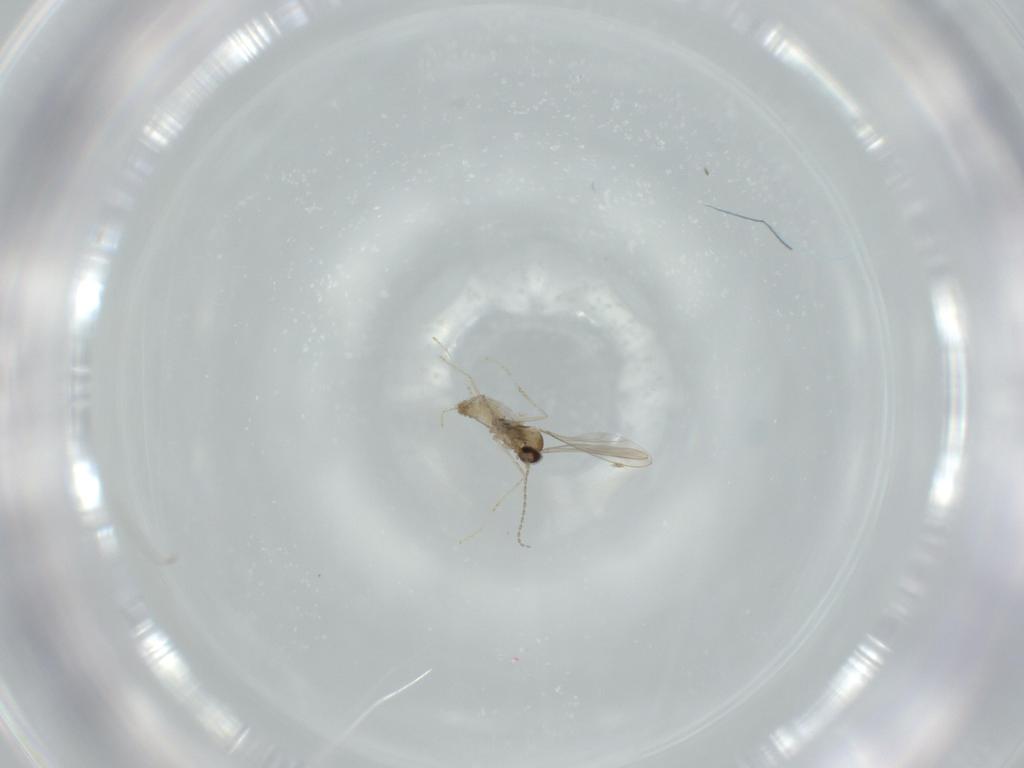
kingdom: Animalia
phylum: Arthropoda
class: Insecta
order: Diptera
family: Cecidomyiidae
